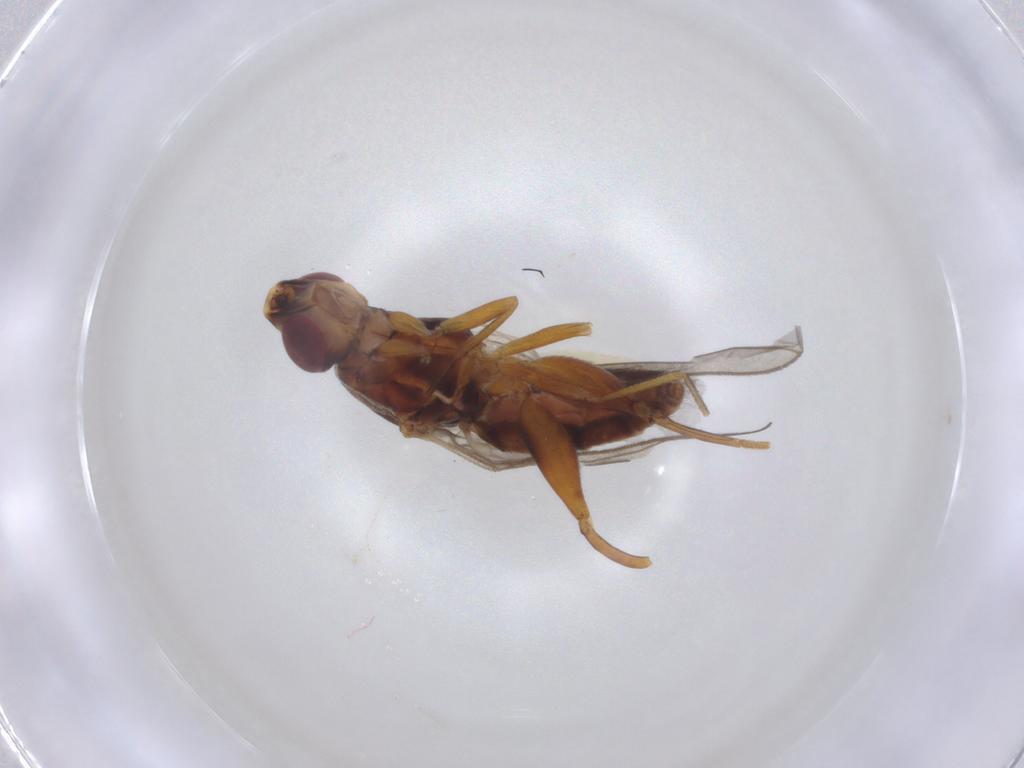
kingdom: Animalia
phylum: Arthropoda
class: Insecta
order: Diptera
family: Chloropidae
